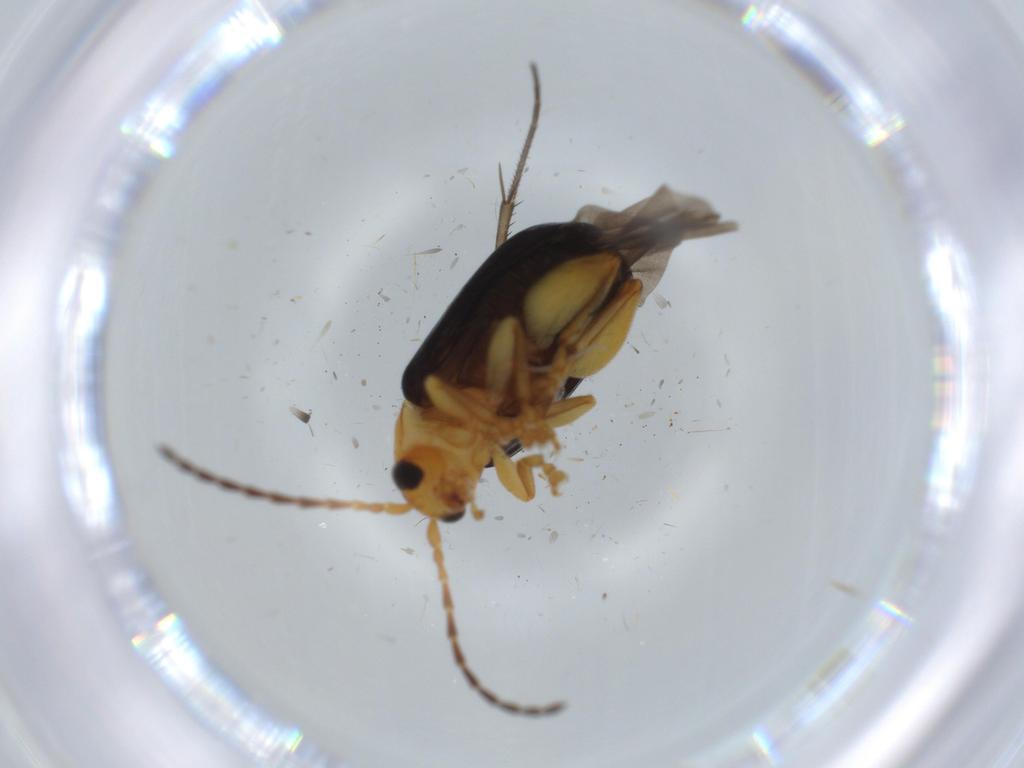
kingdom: Animalia
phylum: Arthropoda
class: Insecta
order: Coleoptera
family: Chrysomelidae
